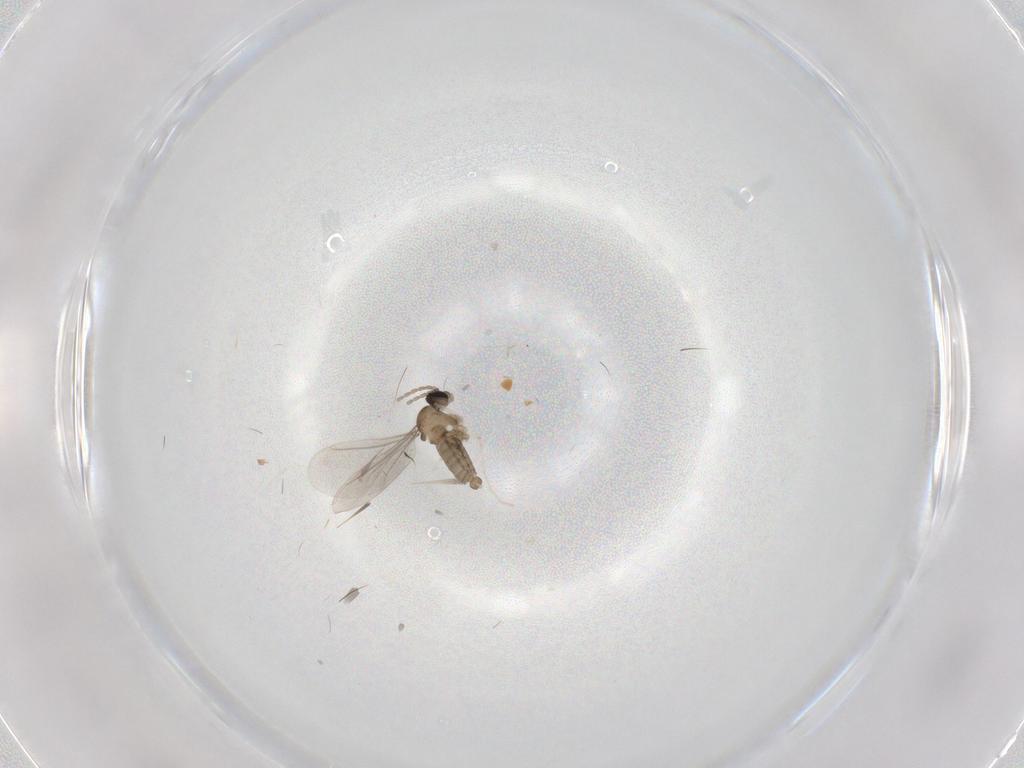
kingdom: Animalia
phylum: Arthropoda
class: Insecta
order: Diptera
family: Cecidomyiidae
